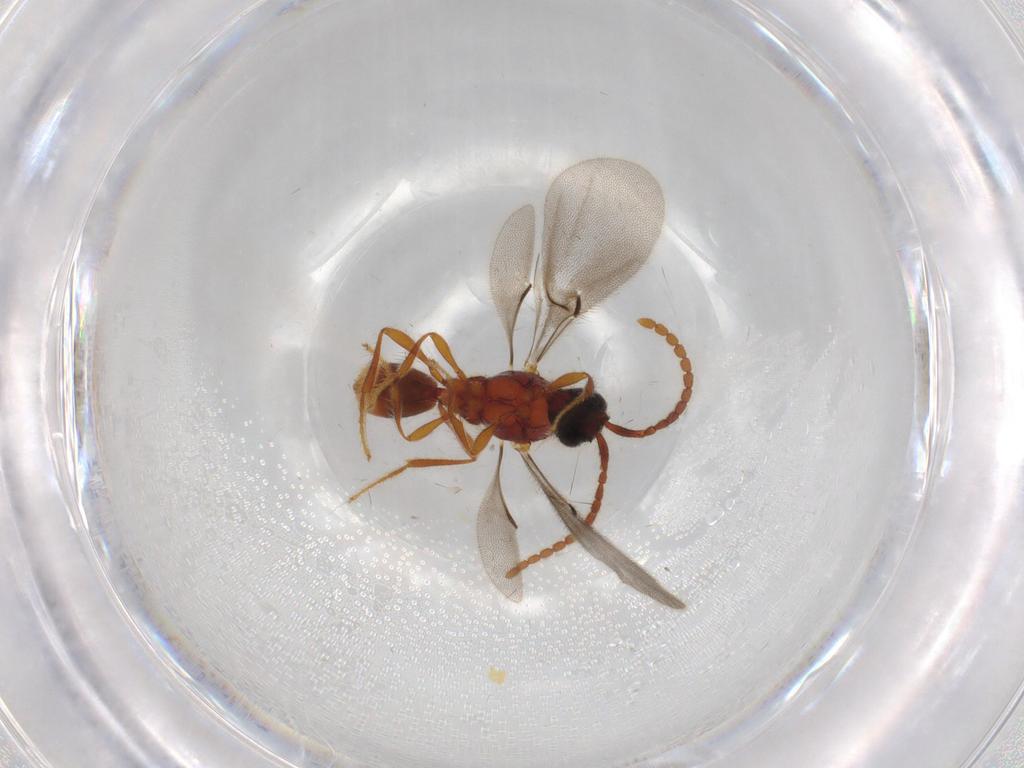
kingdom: Animalia
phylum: Arthropoda
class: Insecta
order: Hymenoptera
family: Diapriidae
